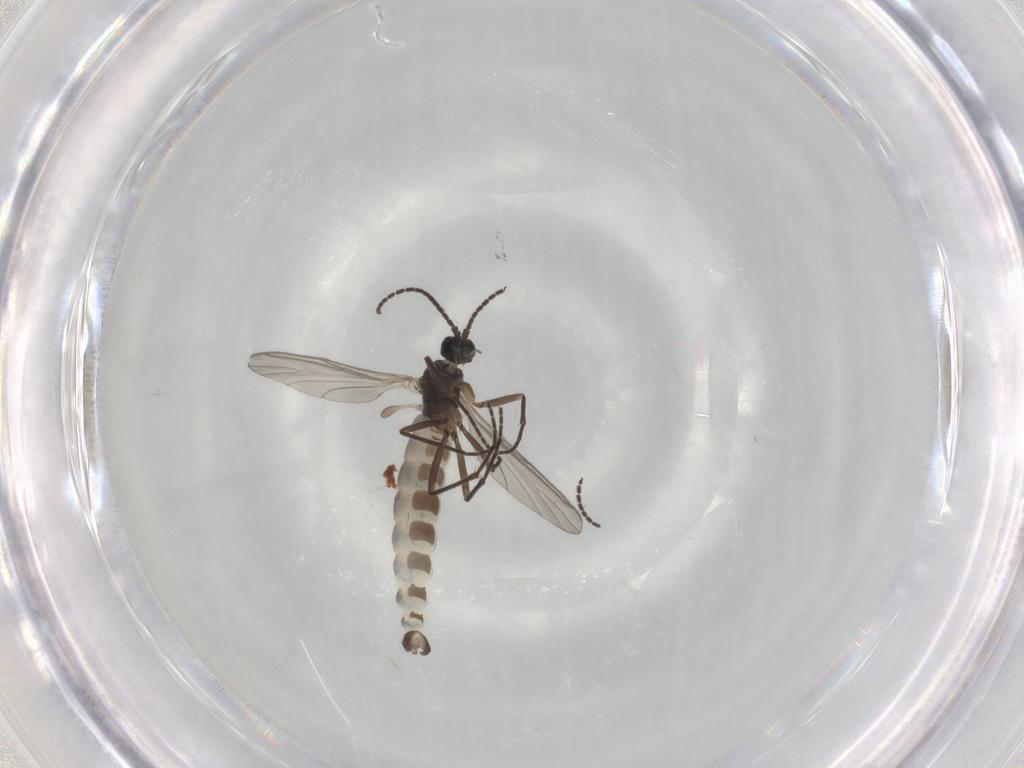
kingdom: Animalia
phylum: Arthropoda
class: Insecta
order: Diptera
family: Sciaridae
